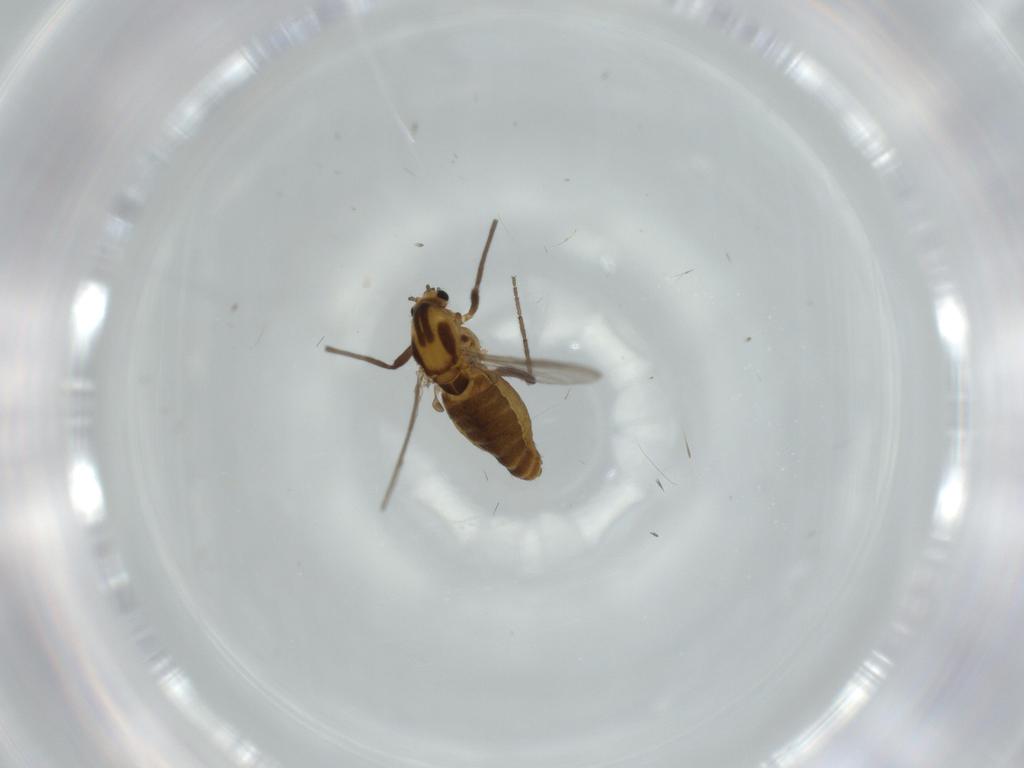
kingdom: Animalia
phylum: Arthropoda
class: Insecta
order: Diptera
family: Chironomidae
